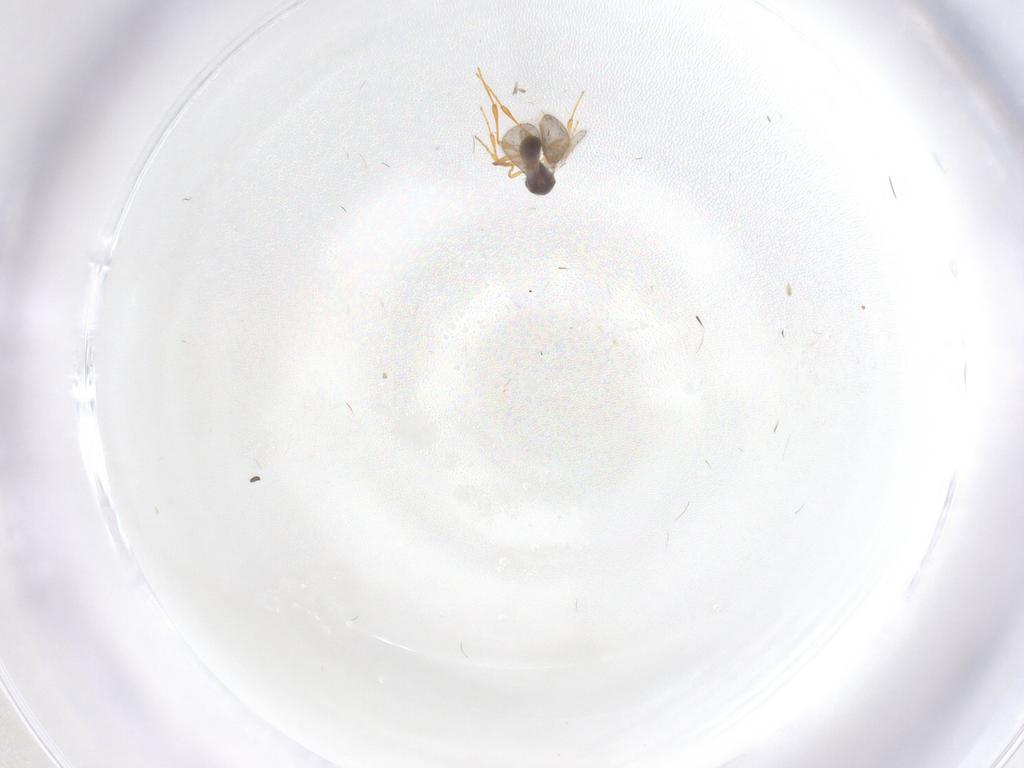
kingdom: Animalia
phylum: Arthropoda
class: Insecta
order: Hymenoptera
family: Platygastridae
